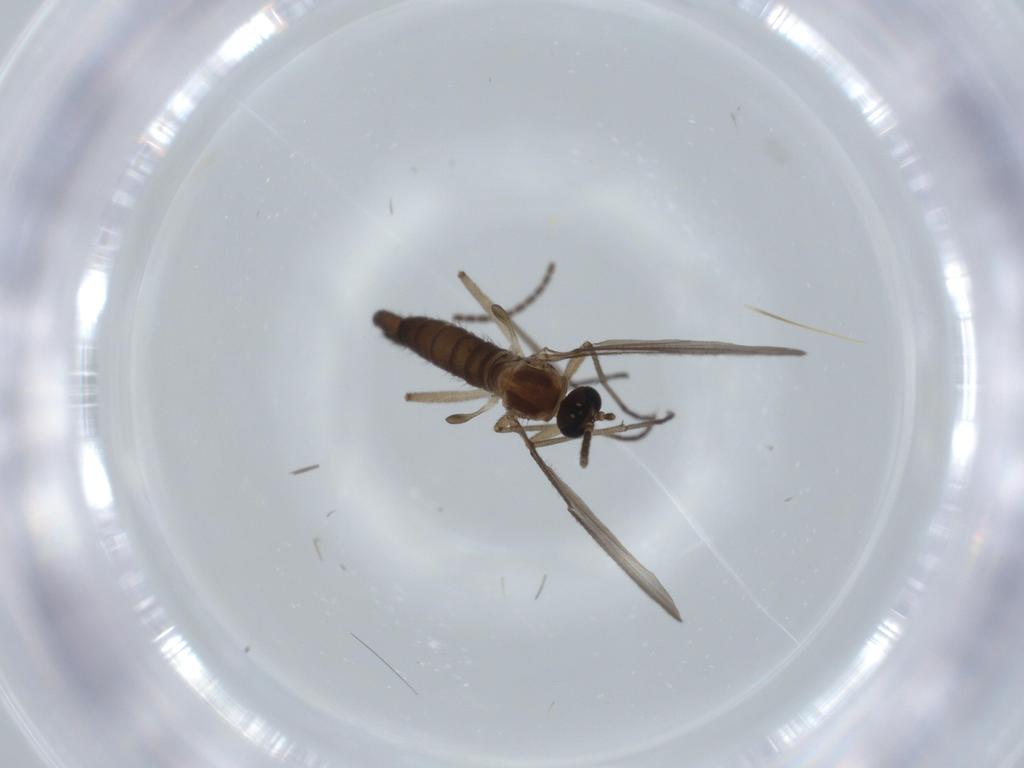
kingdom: Animalia
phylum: Arthropoda
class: Insecta
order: Diptera
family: Sciaridae
